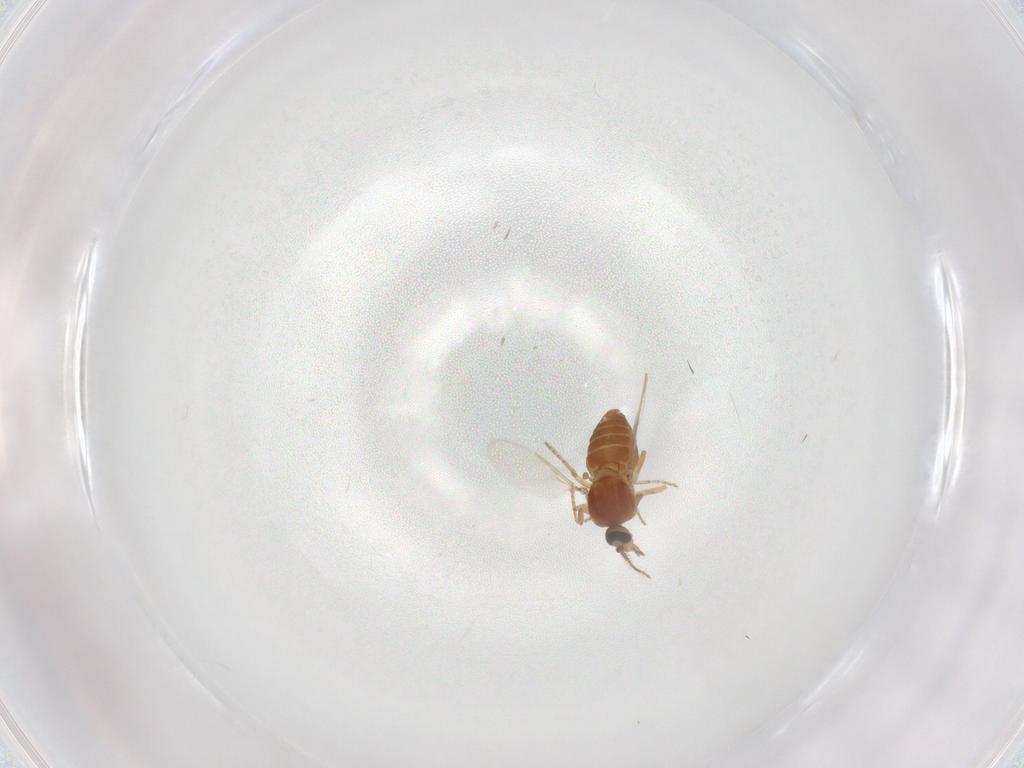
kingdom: Animalia
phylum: Arthropoda
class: Insecta
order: Diptera
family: Ceratopogonidae
